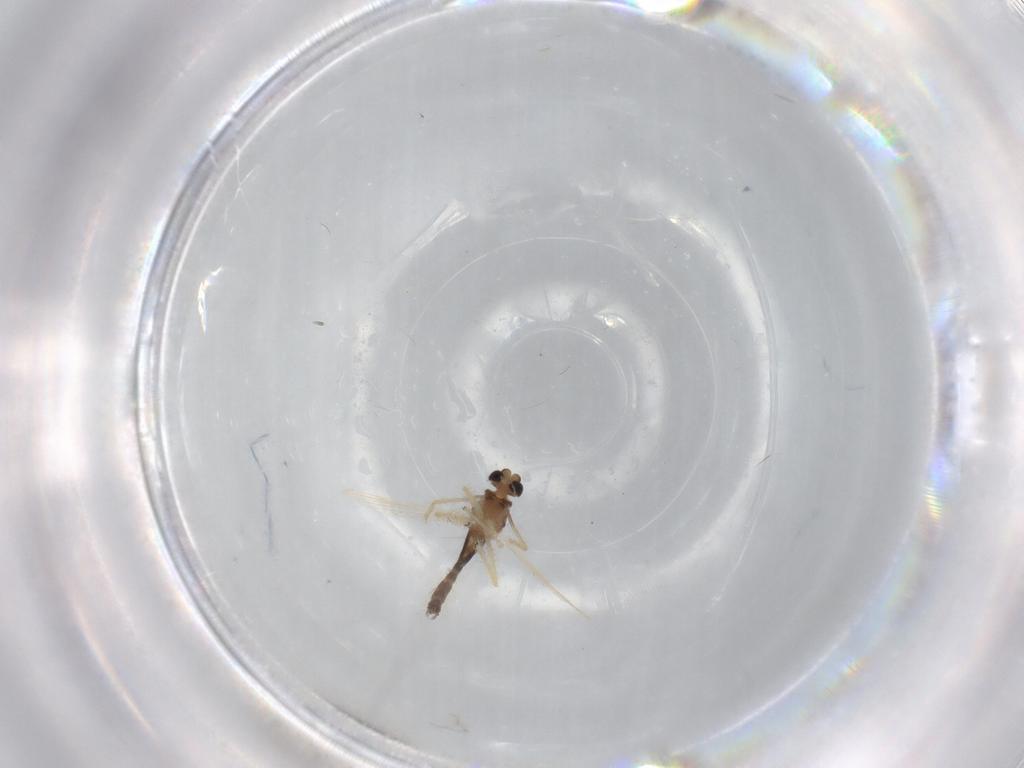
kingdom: Animalia
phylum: Arthropoda
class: Insecta
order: Diptera
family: Chironomidae
